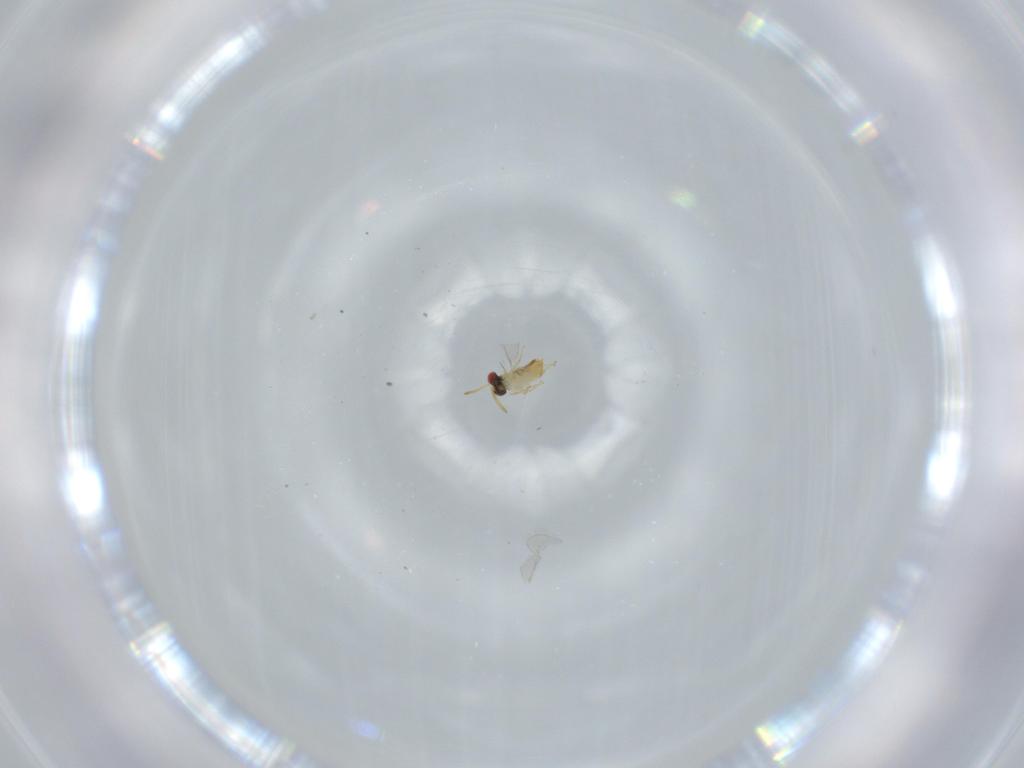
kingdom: Animalia
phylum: Arthropoda
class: Insecta
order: Hymenoptera
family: Aphelinidae
